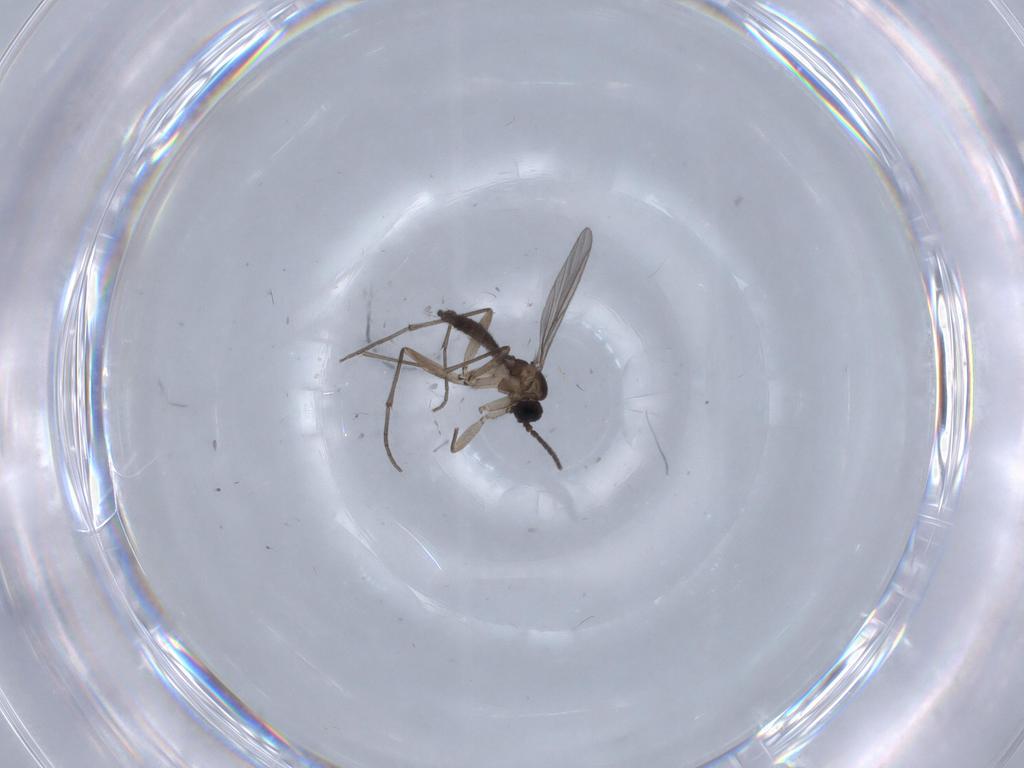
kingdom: Animalia
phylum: Arthropoda
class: Insecta
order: Diptera
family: Sciaridae
